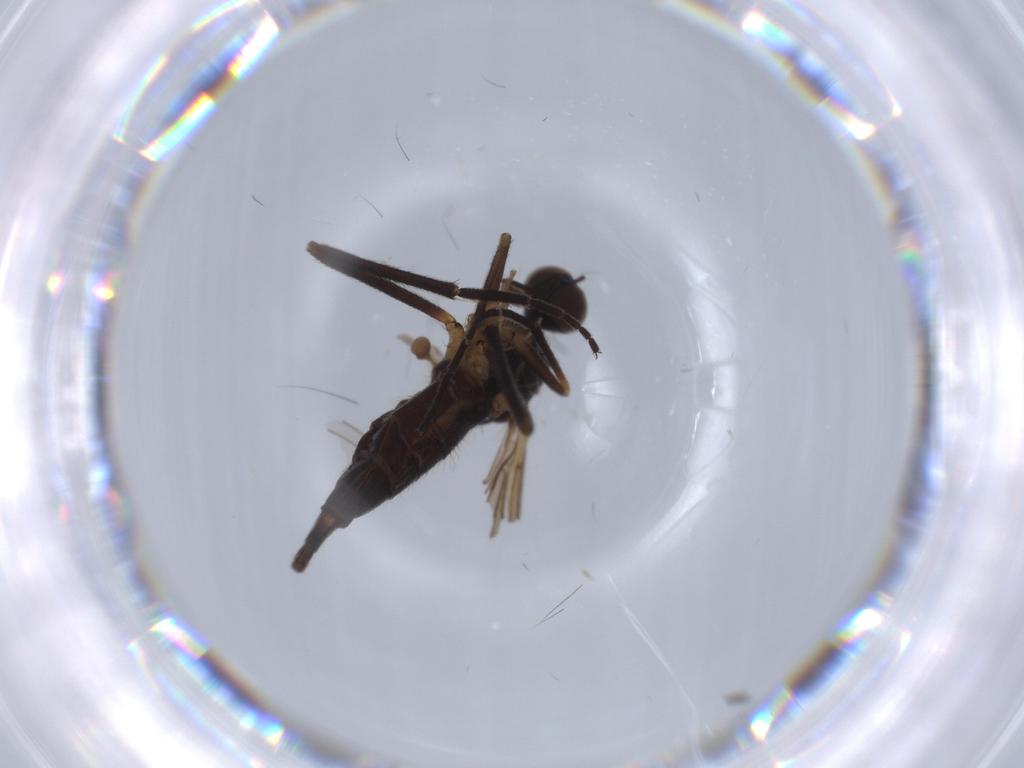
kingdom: Animalia
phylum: Arthropoda
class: Insecta
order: Diptera
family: Empididae
